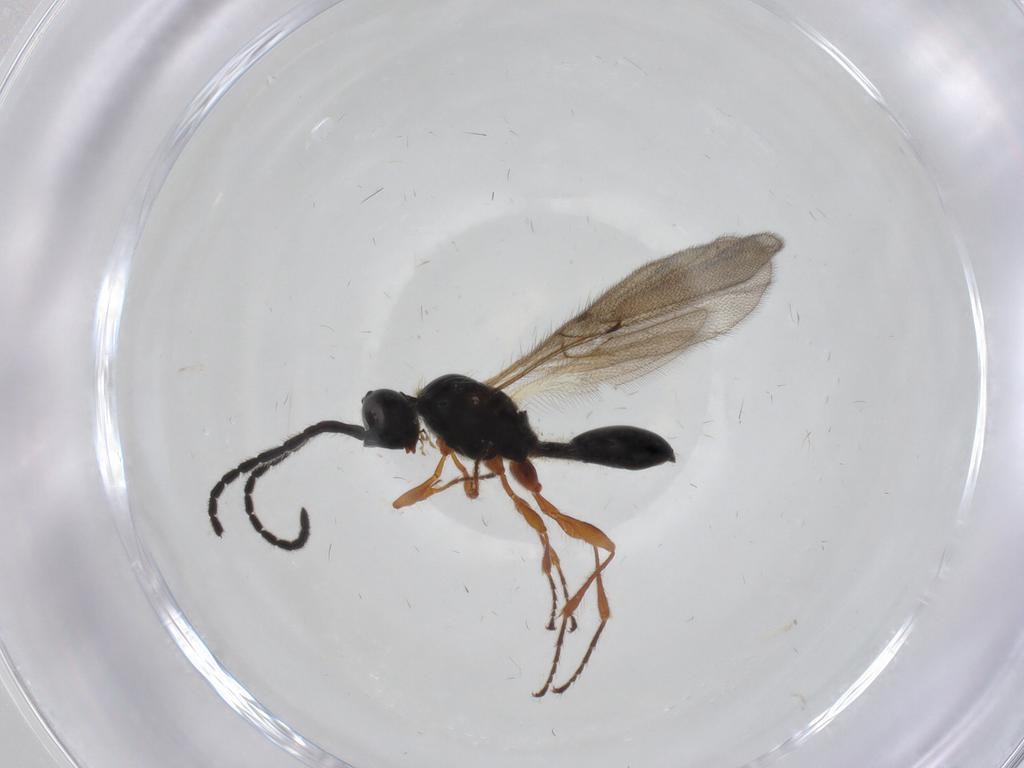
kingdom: Animalia
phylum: Arthropoda
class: Insecta
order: Hymenoptera
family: Diapriidae
